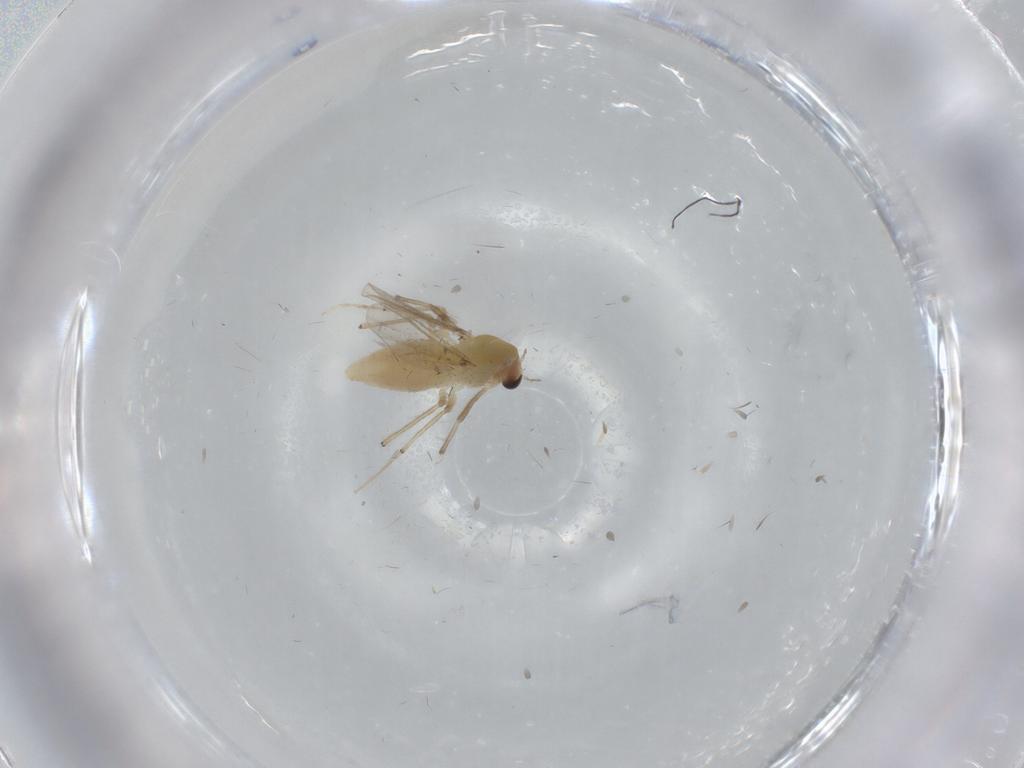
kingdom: Animalia
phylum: Arthropoda
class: Insecta
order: Diptera
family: Chironomidae
